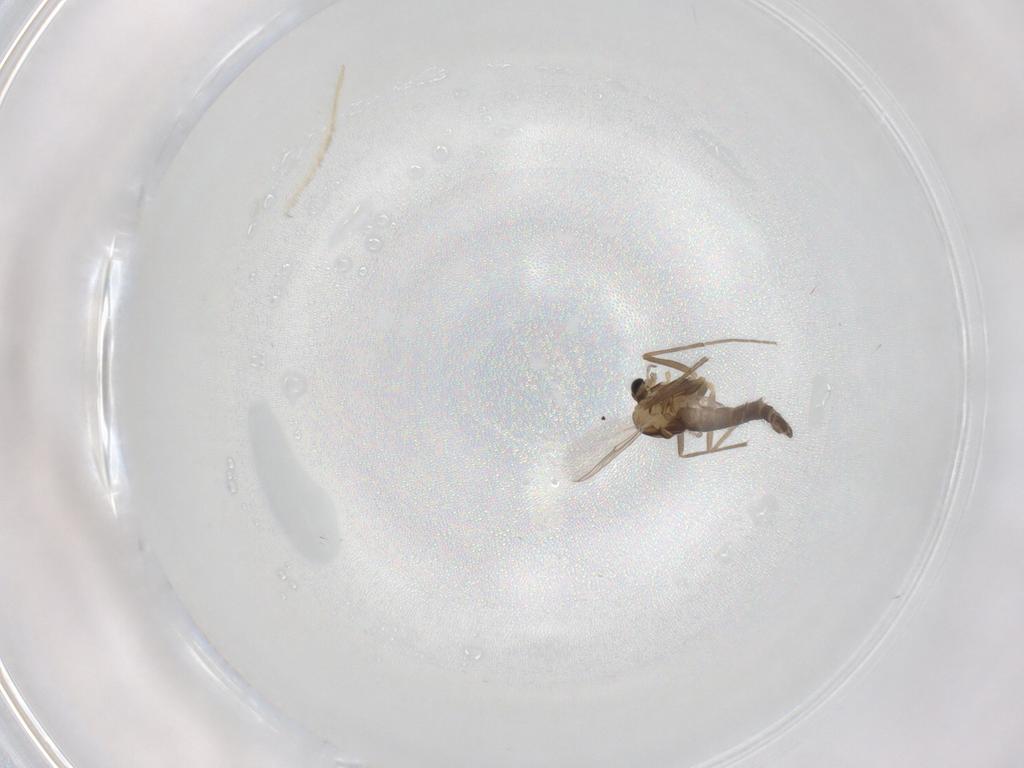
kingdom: Animalia
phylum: Arthropoda
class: Insecta
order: Diptera
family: Chironomidae
